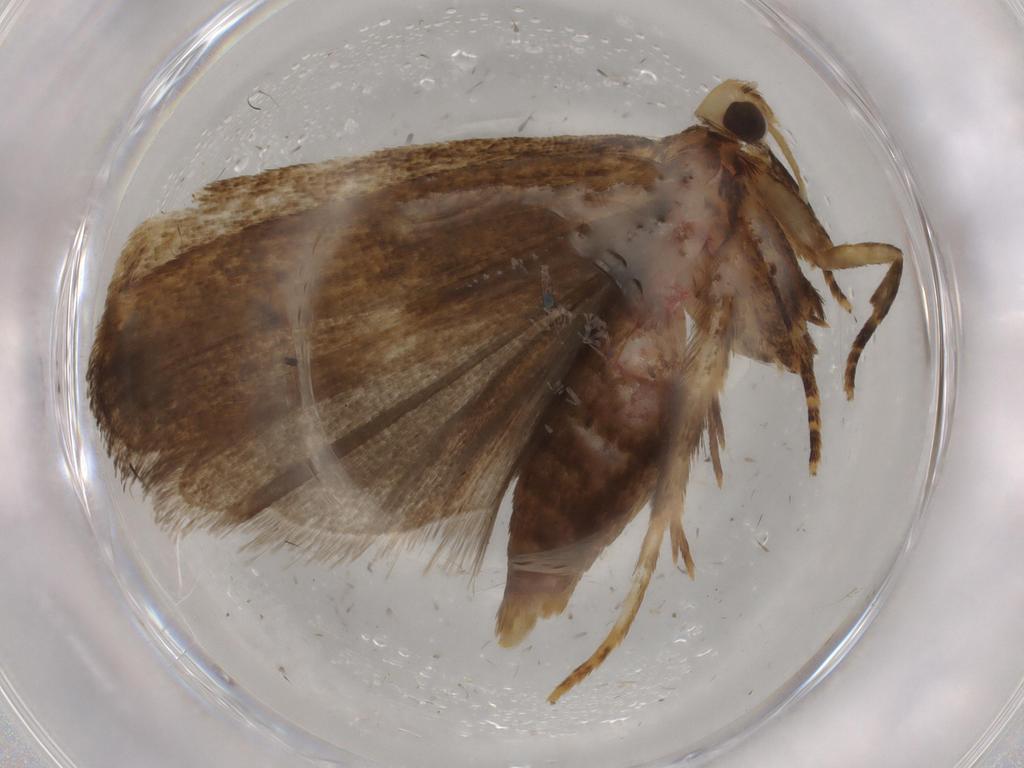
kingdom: Animalia
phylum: Arthropoda
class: Insecta
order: Lepidoptera
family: Autostichidae
